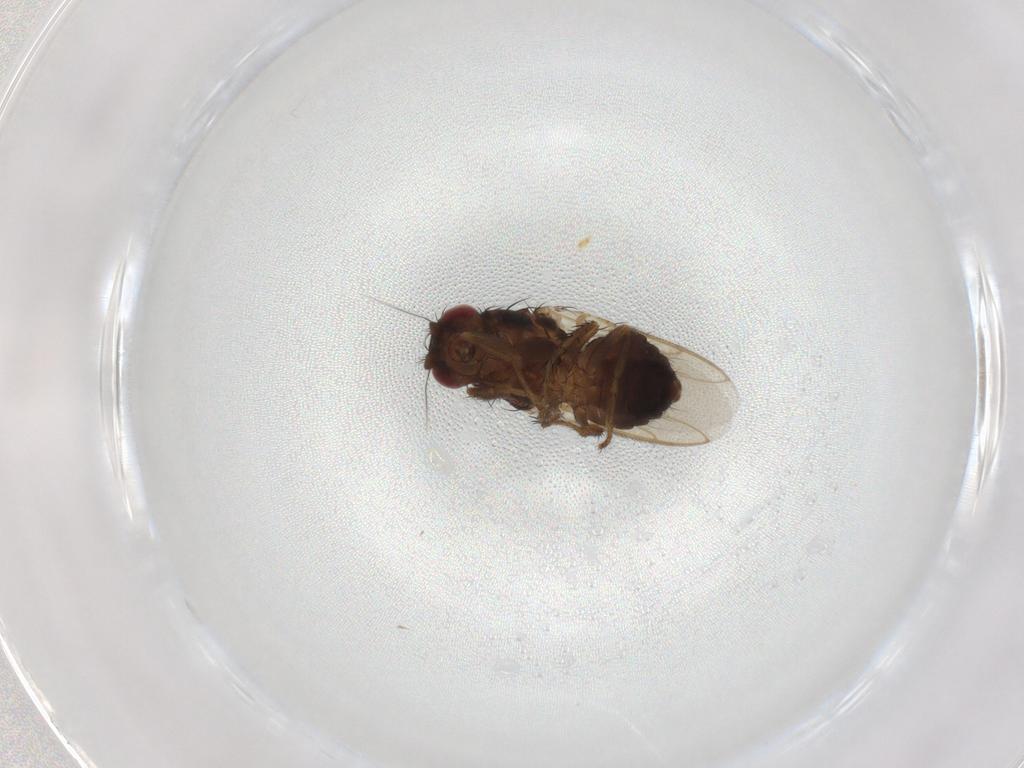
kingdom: Animalia
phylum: Arthropoda
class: Insecta
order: Diptera
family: Sphaeroceridae
